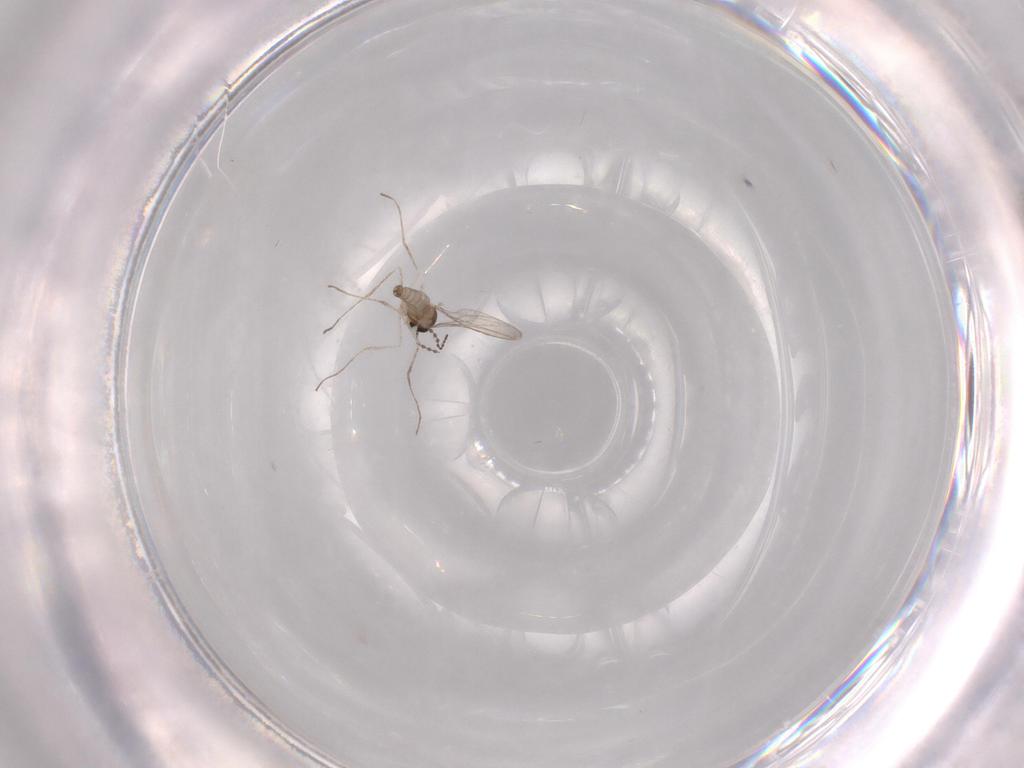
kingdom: Animalia
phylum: Arthropoda
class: Insecta
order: Diptera
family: Cecidomyiidae
